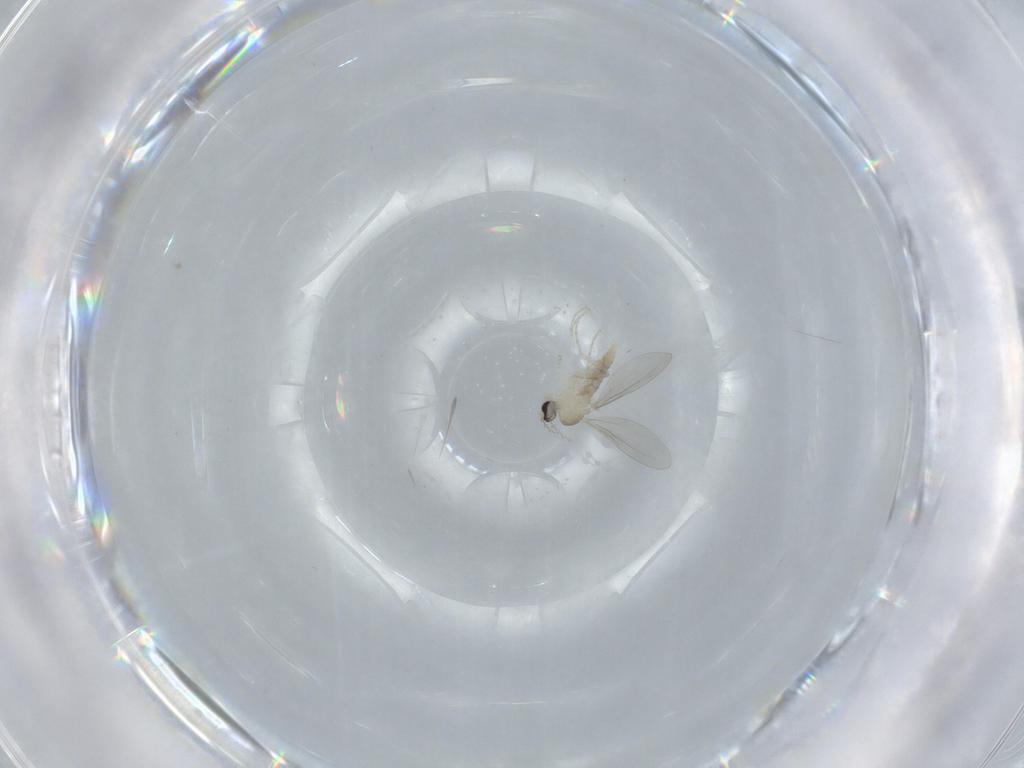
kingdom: Animalia
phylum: Arthropoda
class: Insecta
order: Diptera
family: Cecidomyiidae
